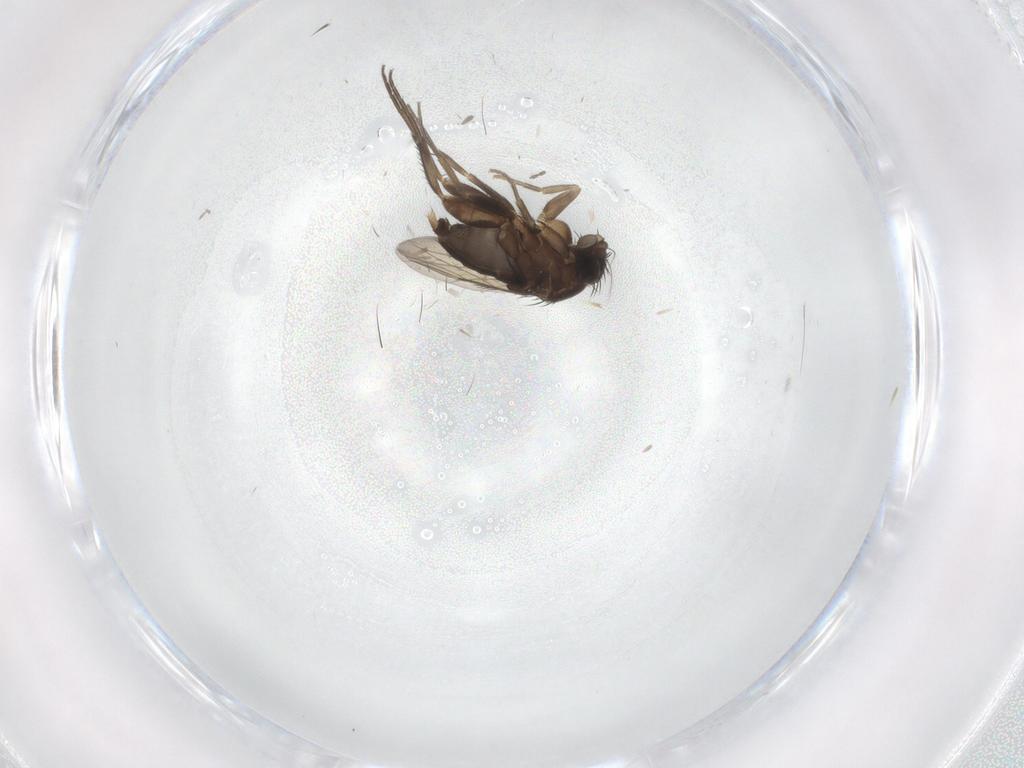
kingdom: Animalia
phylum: Arthropoda
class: Insecta
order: Diptera
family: Phoridae
